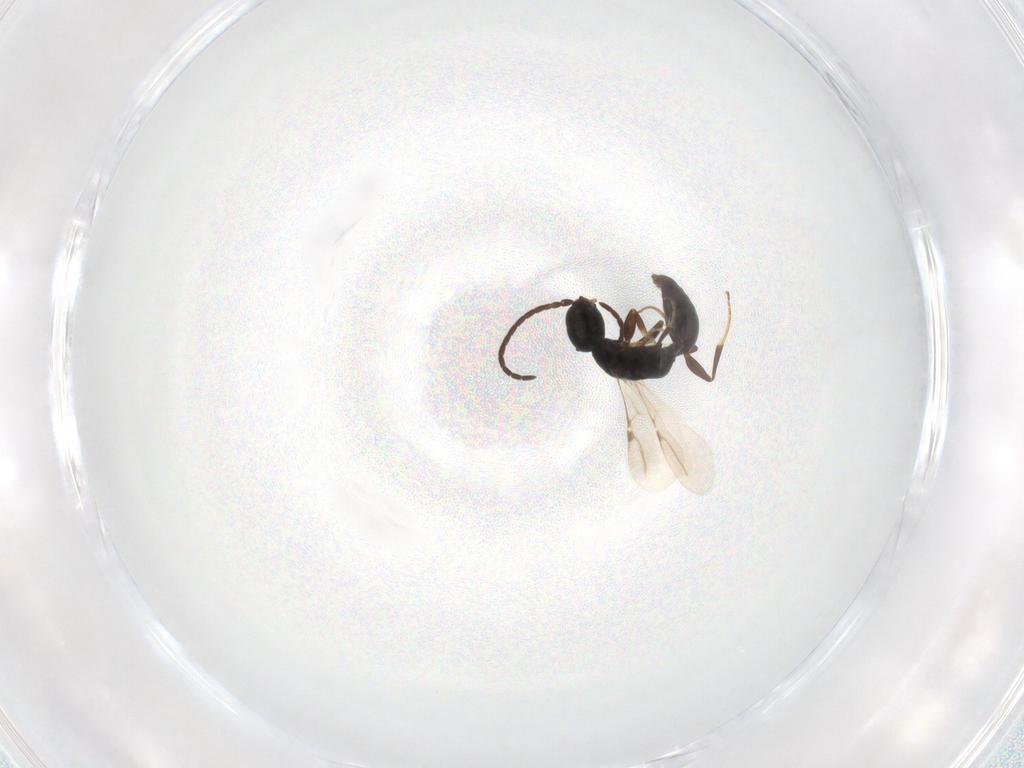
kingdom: Animalia
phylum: Arthropoda
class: Insecta
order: Hymenoptera
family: Bethylidae
